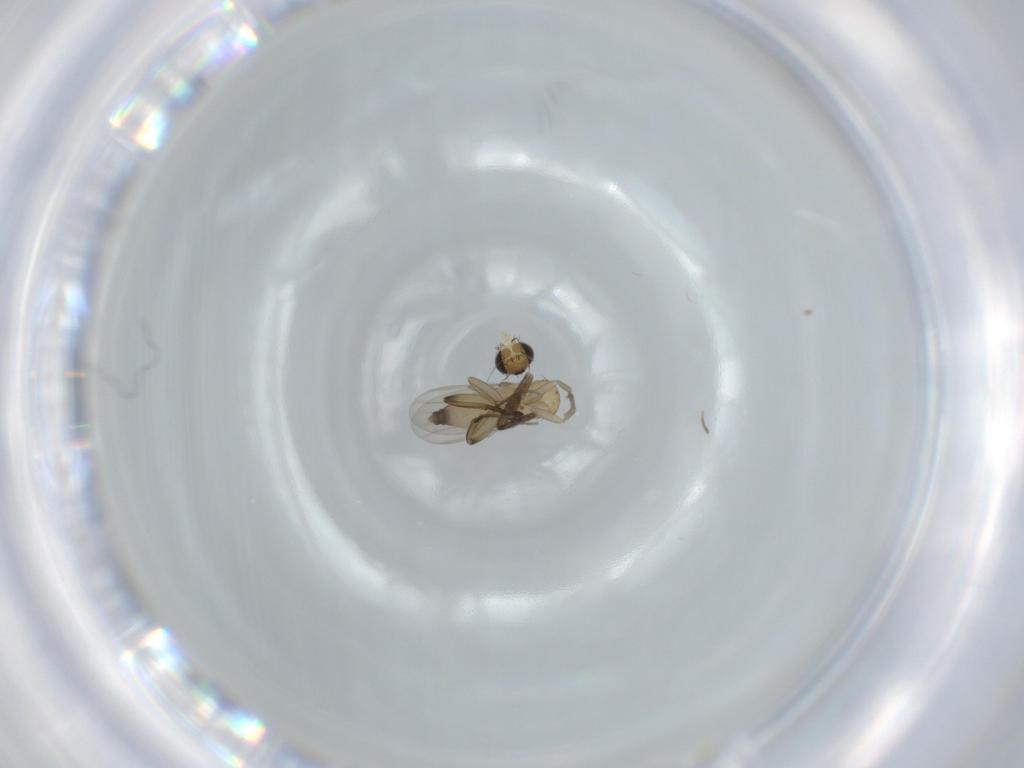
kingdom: Animalia
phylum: Arthropoda
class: Insecta
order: Diptera
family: Phoridae
